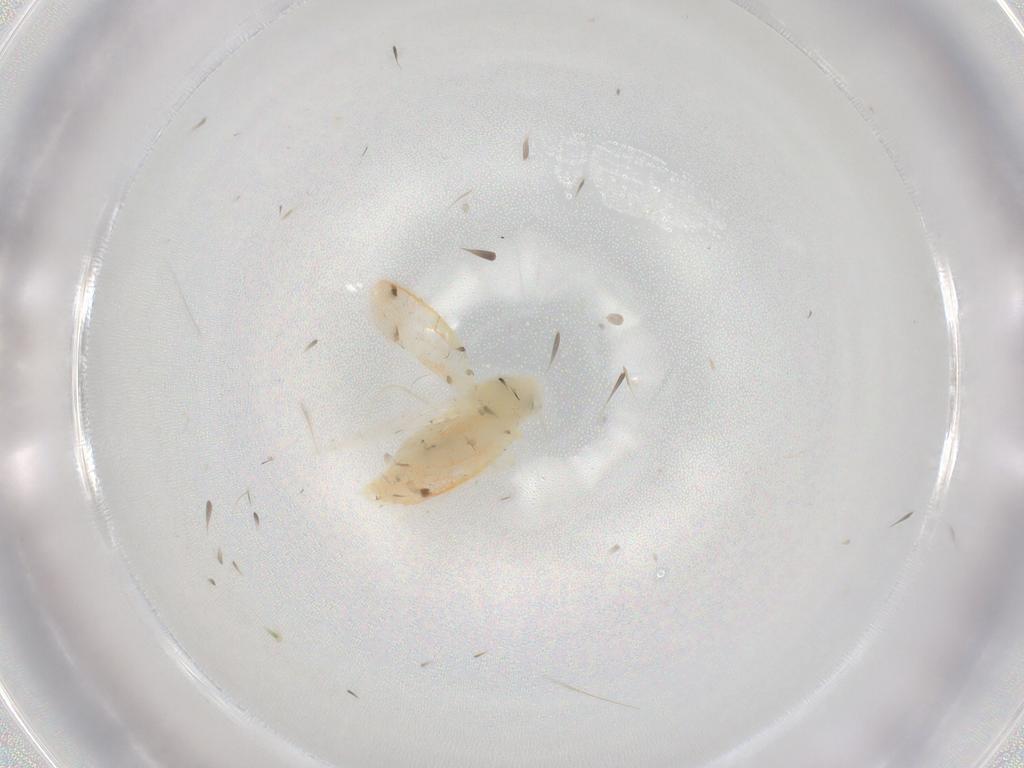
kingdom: Animalia
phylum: Arthropoda
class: Insecta
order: Hemiptera
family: Cicadellidae
